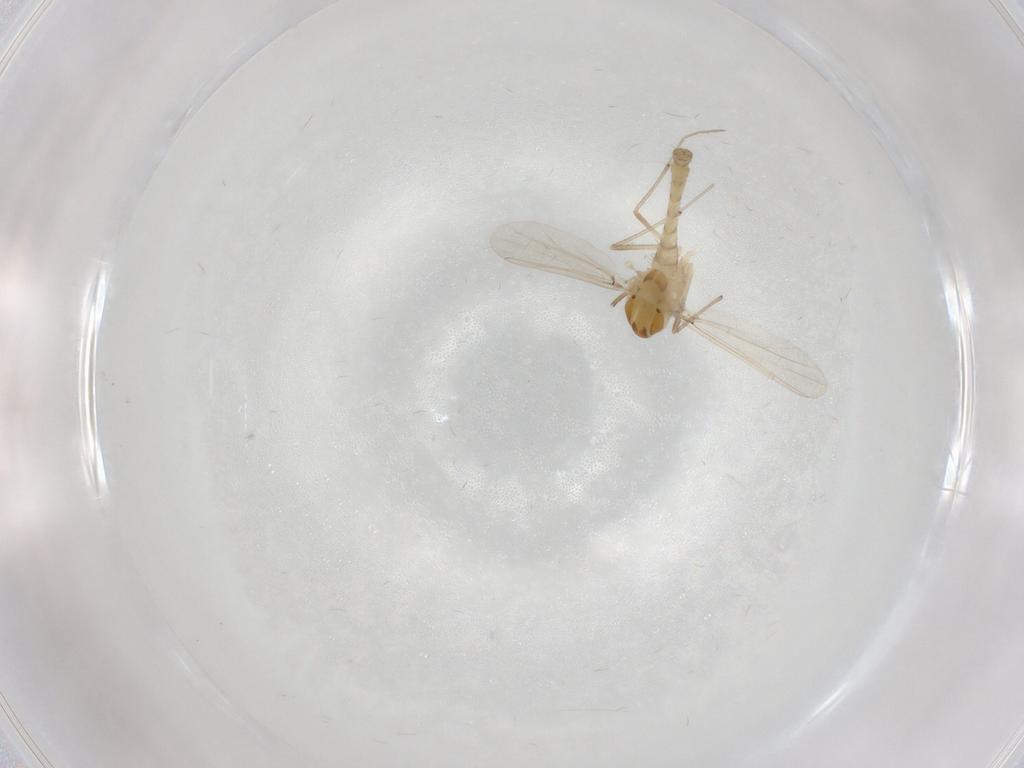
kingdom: Animalia
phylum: Arthropoda
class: Insecta
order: Diptera
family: Chironomidae
